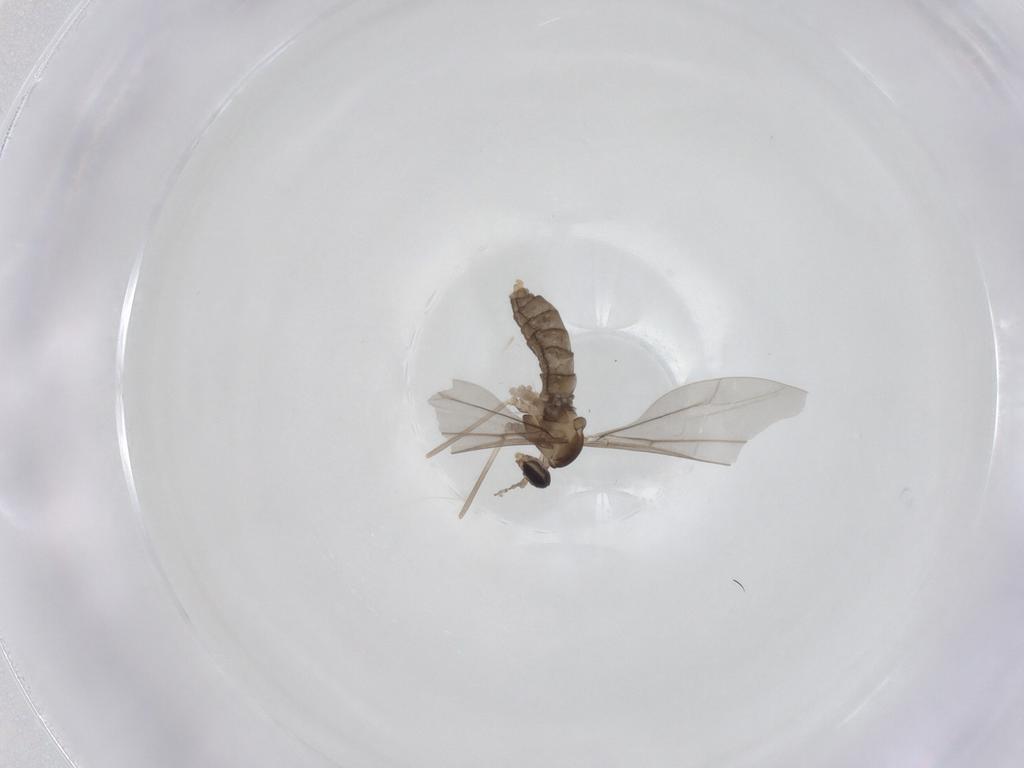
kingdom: Animalia
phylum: Arthropoda
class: Insecta
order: Diptera
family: Cecidomyiidae
